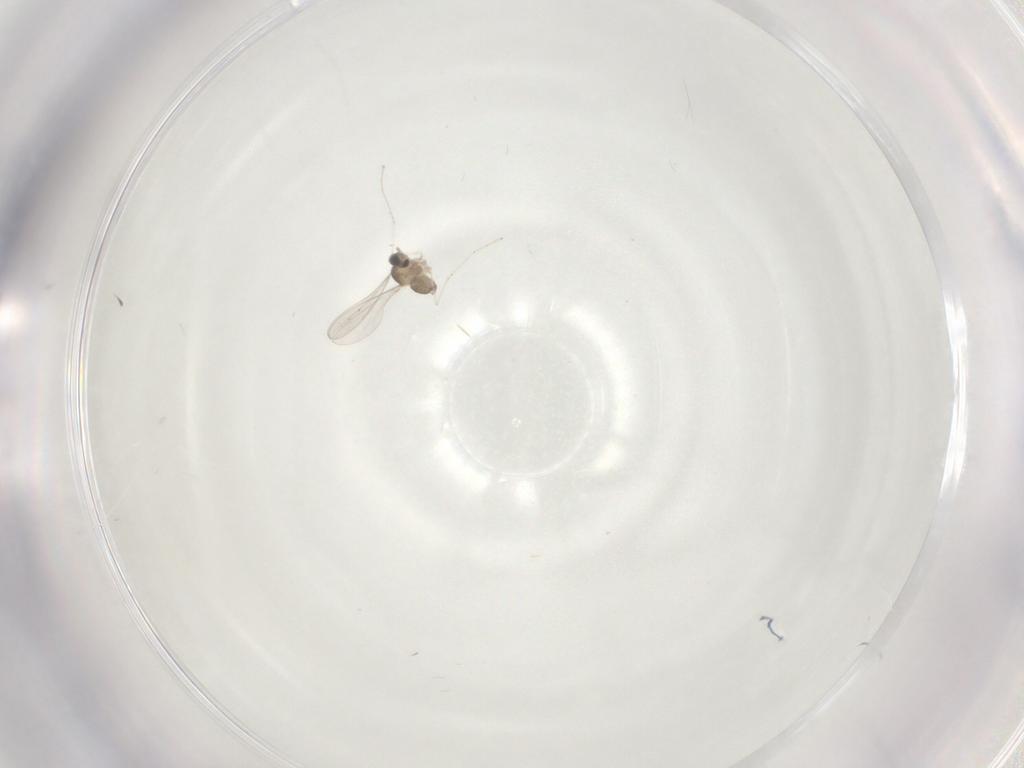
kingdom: Animalia
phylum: Arthropoda
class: Insecta
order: Diptera
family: Cecidomyiidae
